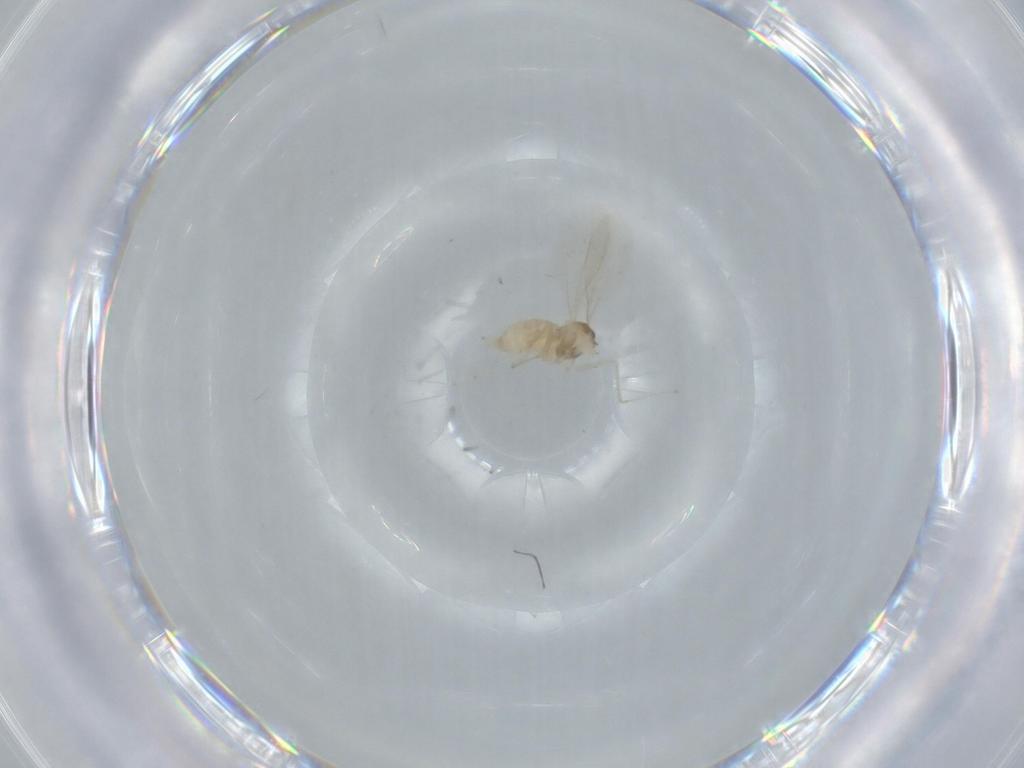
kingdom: Animalia
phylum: Arthropoda
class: Insecta
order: Diptera
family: Cecidomyiidae
